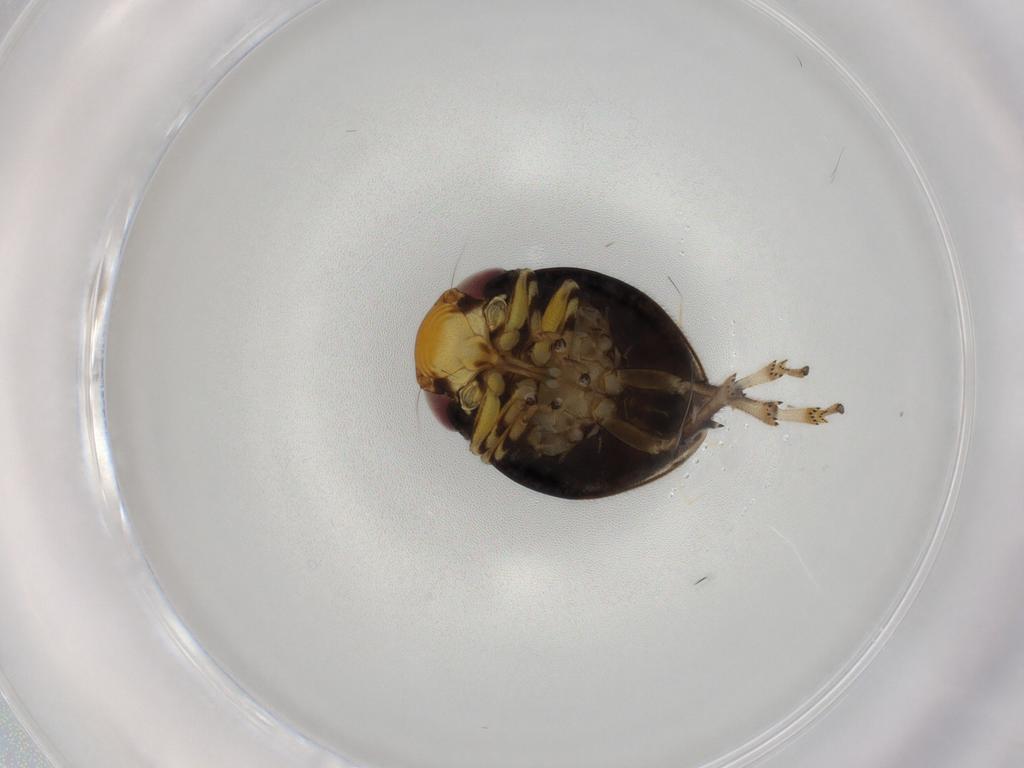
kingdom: Animalia
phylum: Arthropoda
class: Insecta
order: Hemiptera
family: Clastopteridae
